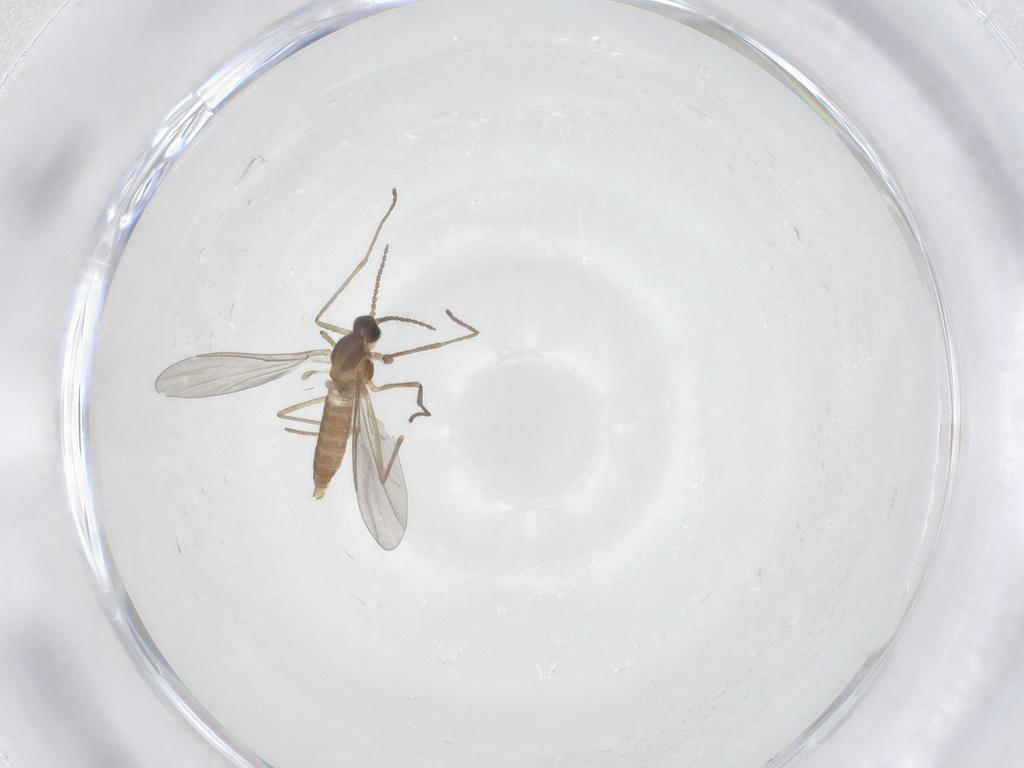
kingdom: Animalia
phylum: Arthropoda
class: Insecta
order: Diptera
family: Cecidomyiidae
